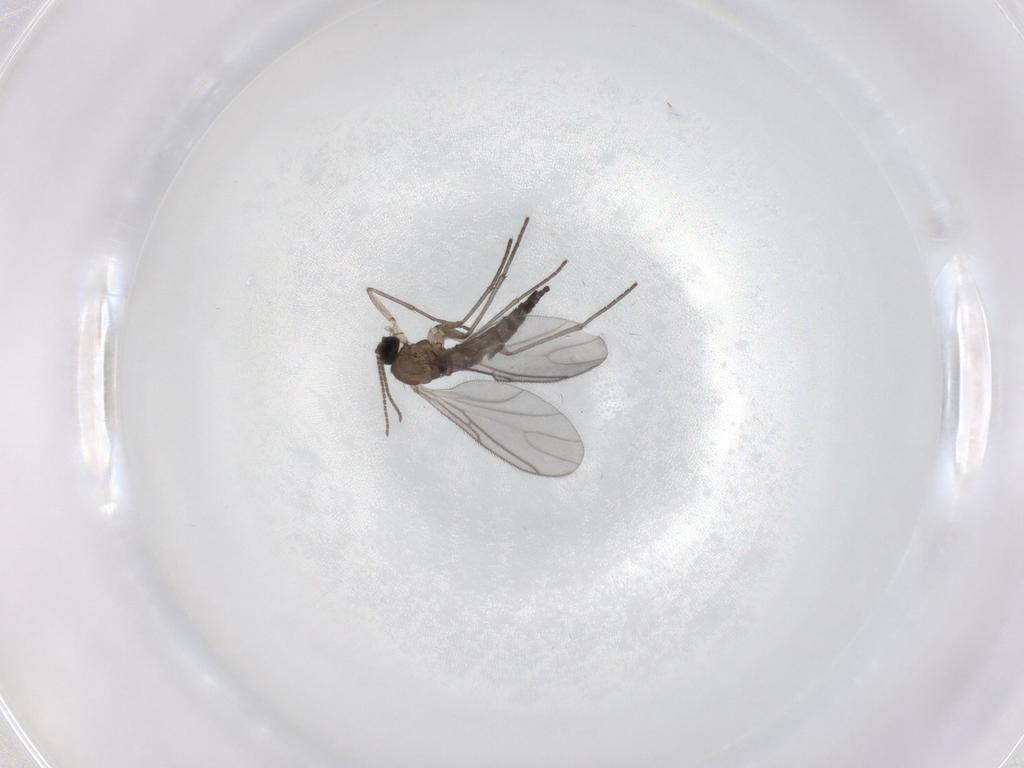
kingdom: Animalia
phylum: Arthropoda
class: Insecta
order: Diptera
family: Sciaridae
